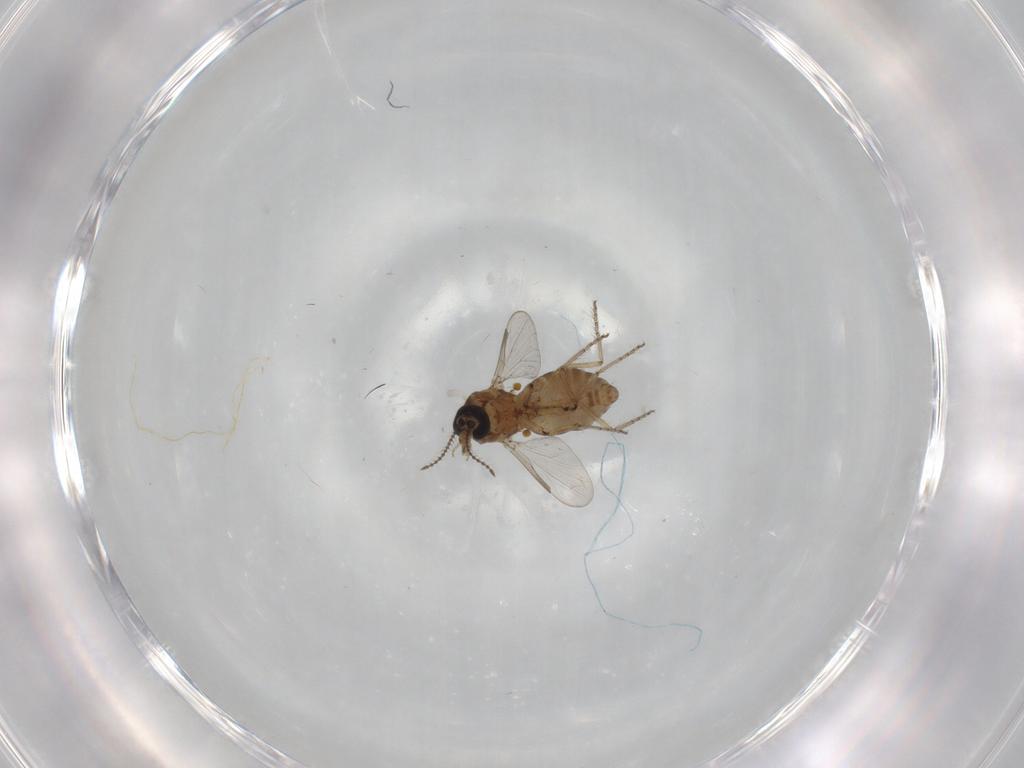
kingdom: Animalia
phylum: Arthropoda
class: Insecta
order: Diptera
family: Ceratopogonidae
